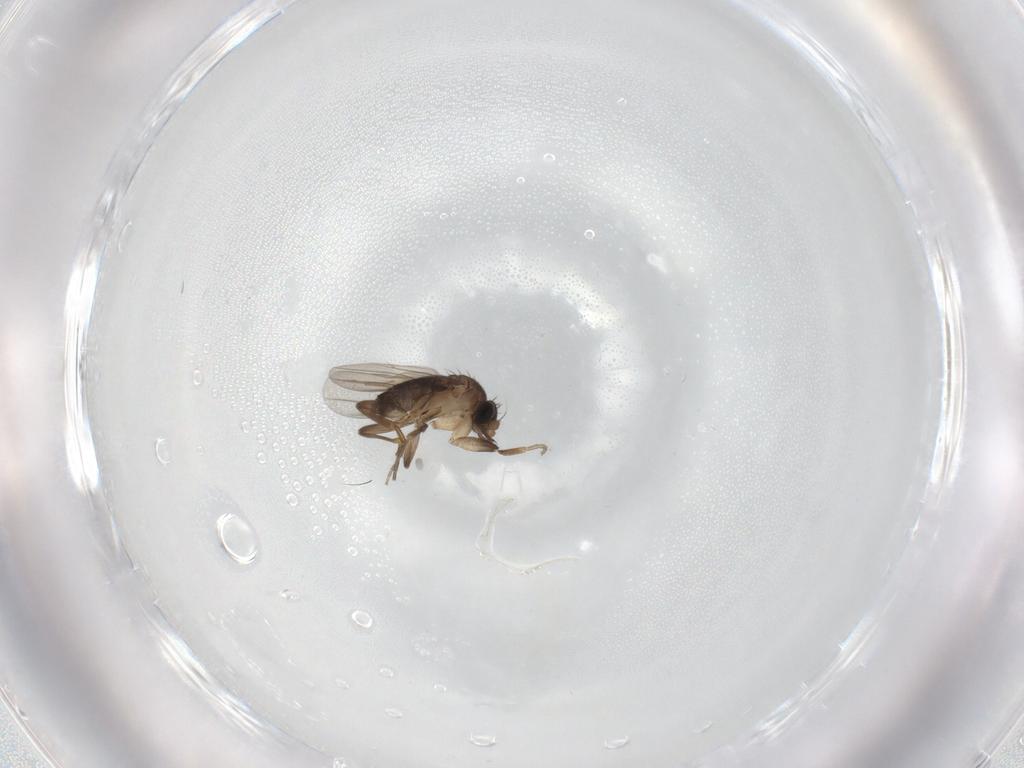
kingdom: Animalia
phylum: Arthropoda
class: Insecta
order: Diptera
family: Phoridae
